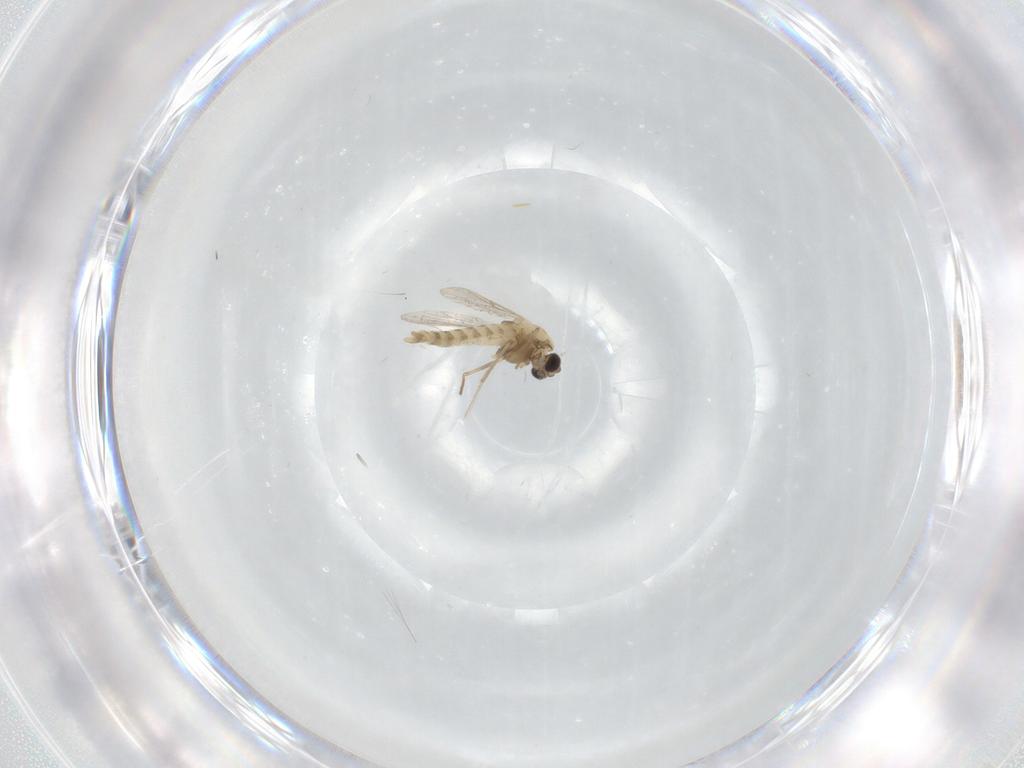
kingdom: Animalia
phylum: Arthropoda
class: Insecta
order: Diptera
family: Chironomidae
